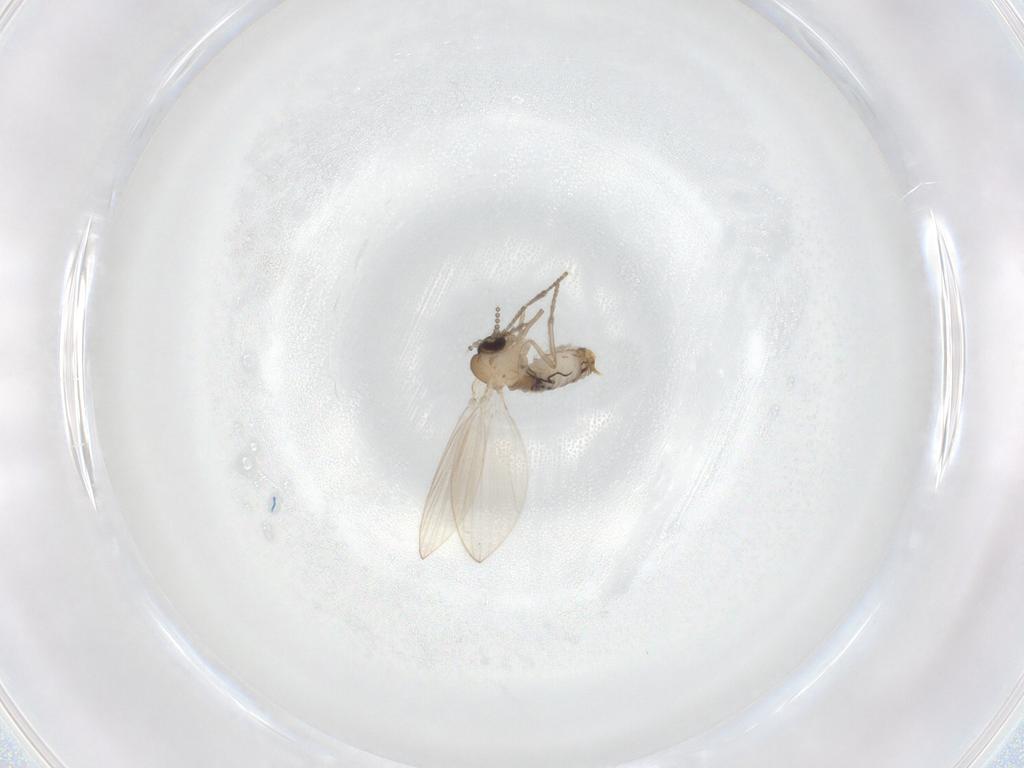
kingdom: Animalia
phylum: Arthropoda
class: Insecta
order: Diptera
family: Psychodidae
